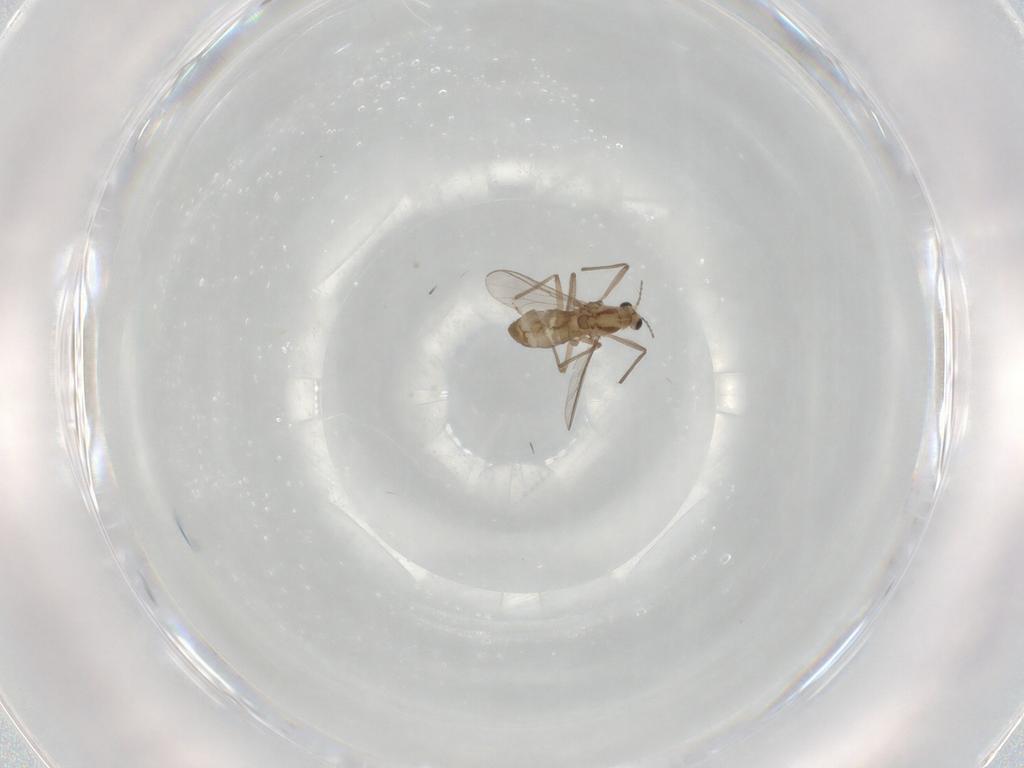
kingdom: Animalia
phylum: Arthropoda
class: Insecta
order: Diptera
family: Chironomidae
